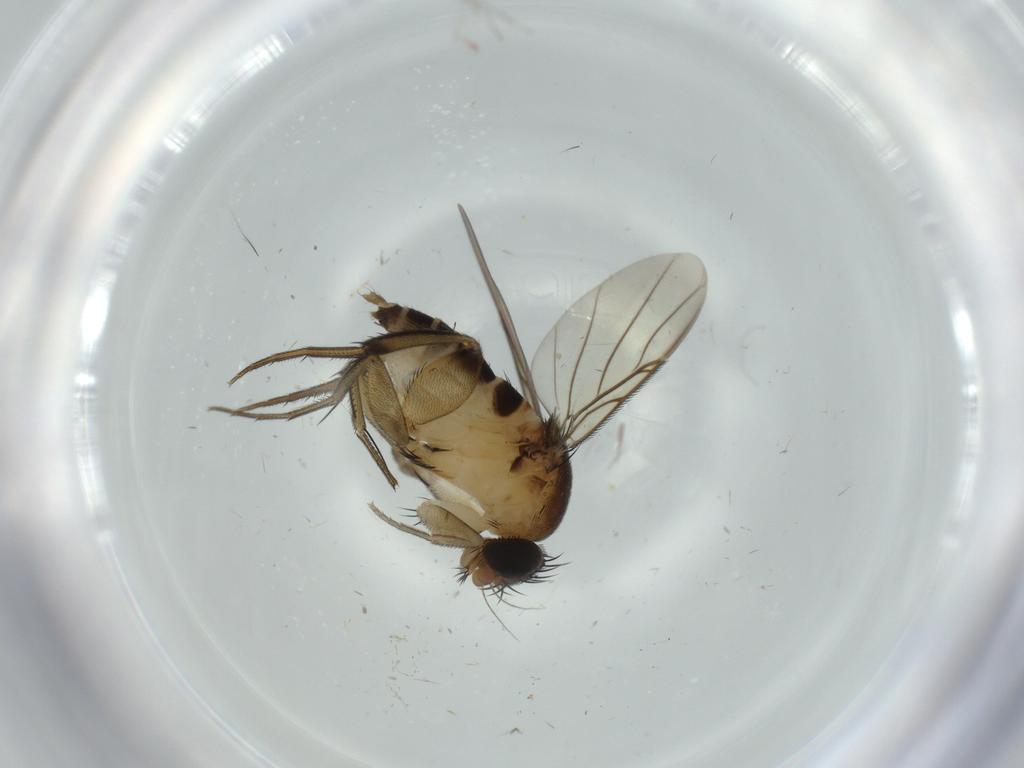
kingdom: Animalia
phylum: Arthropoda
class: Insecta
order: Diptera
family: Phoridae
